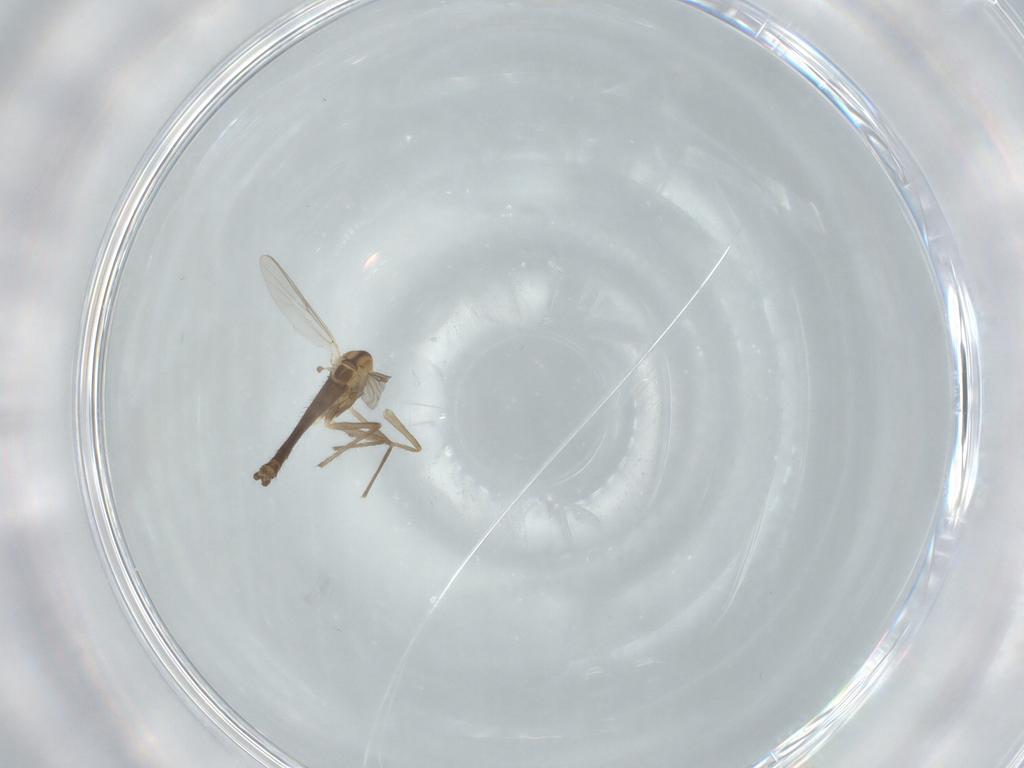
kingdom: Animalia
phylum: Arthropoda
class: Insecta
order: Diptera
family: Chironomidae
